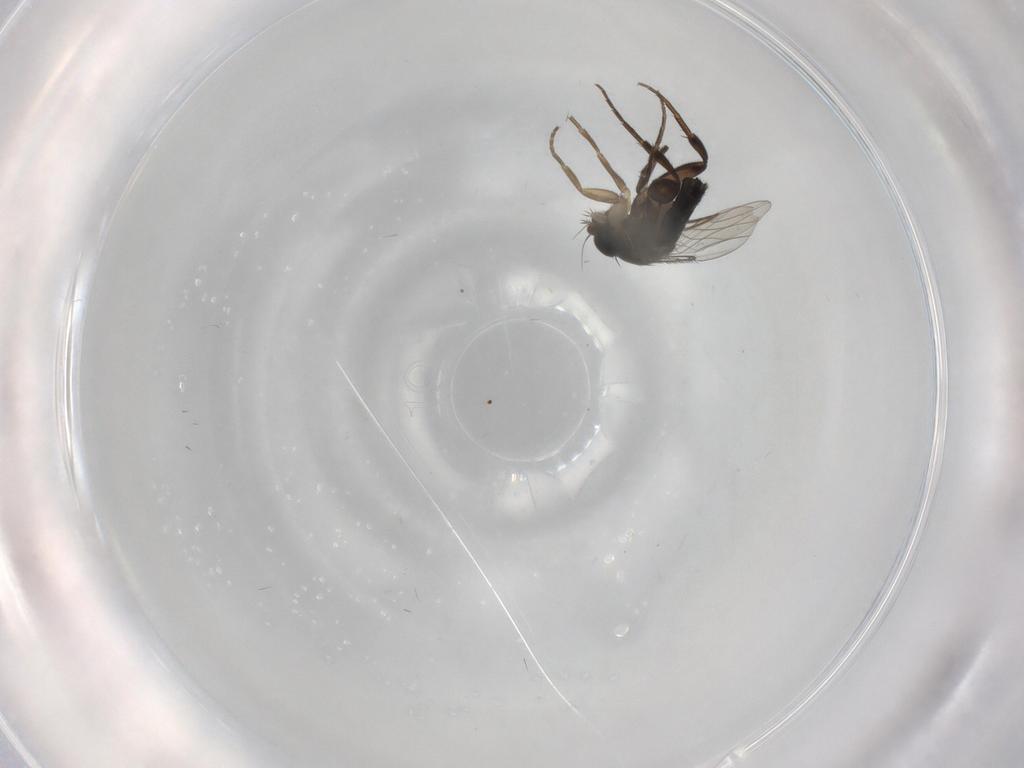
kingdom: Animalia
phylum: Arthropoda
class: Insecta
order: Diptera
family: Phoridae
